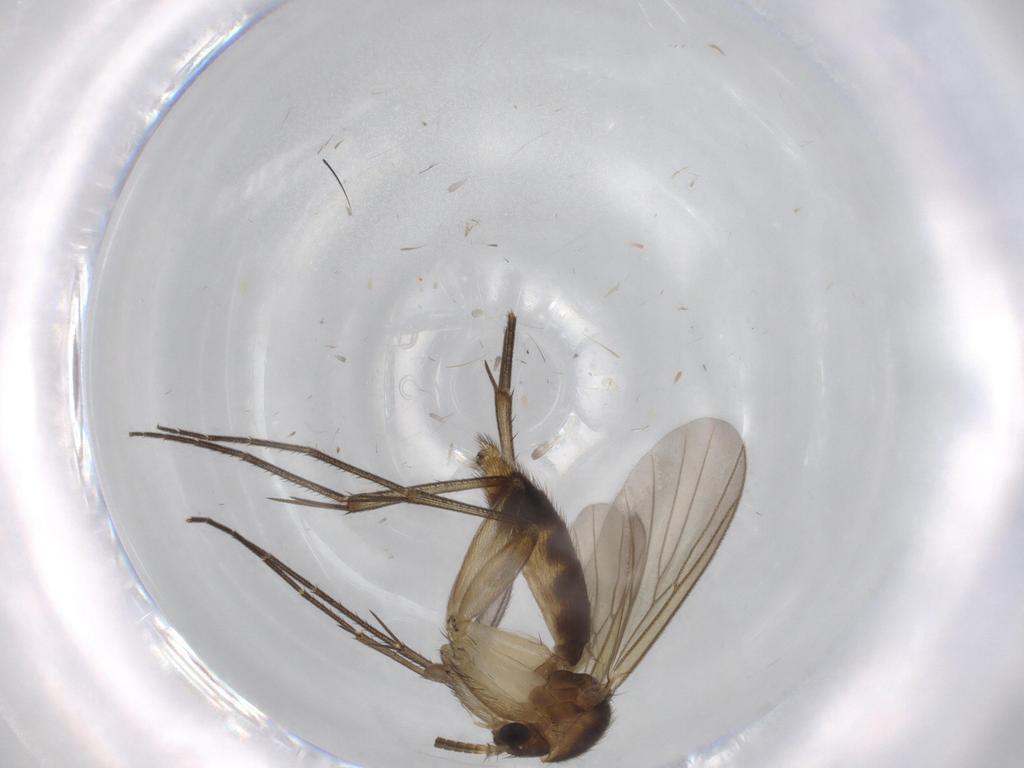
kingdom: Animalia
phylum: Arthropoda
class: Insecta
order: Diptera
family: Mycetophilidae
